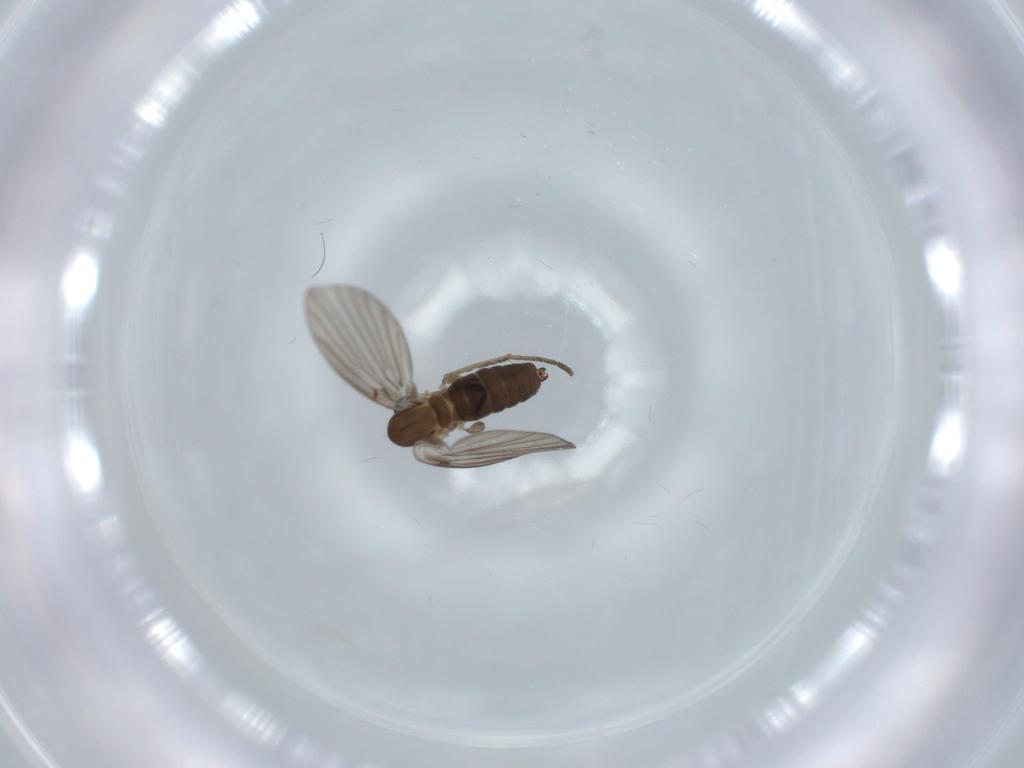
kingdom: Animalia
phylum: Arthropoda
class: Insecta
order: Diptera
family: Psychodidae
